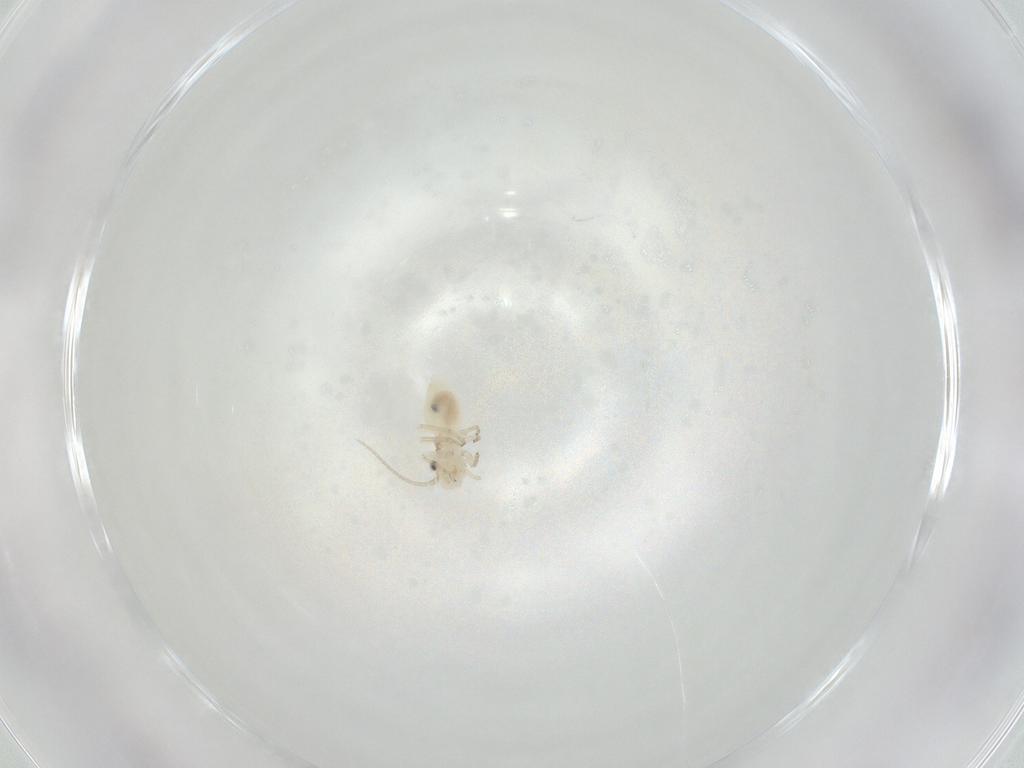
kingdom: Animalia
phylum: Arthropoda
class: Insecta
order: Psocodea
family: Caeciliusidae
